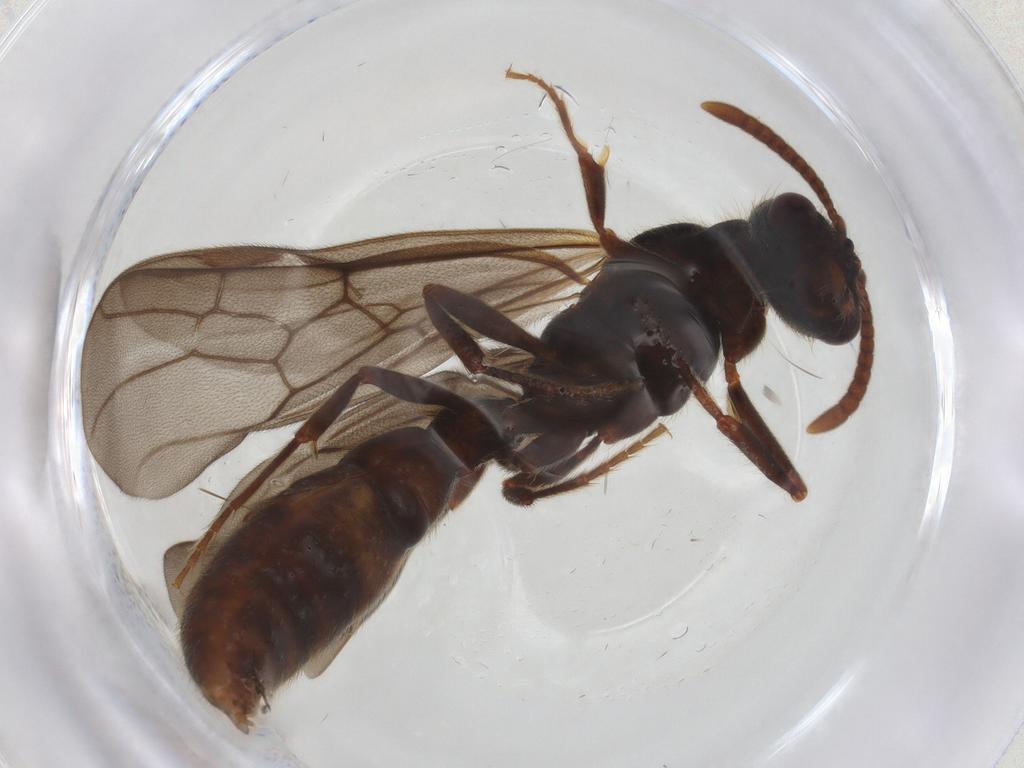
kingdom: Animalia
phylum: Arthropoda
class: Insecta
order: Hymenoptera
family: Formicidae
